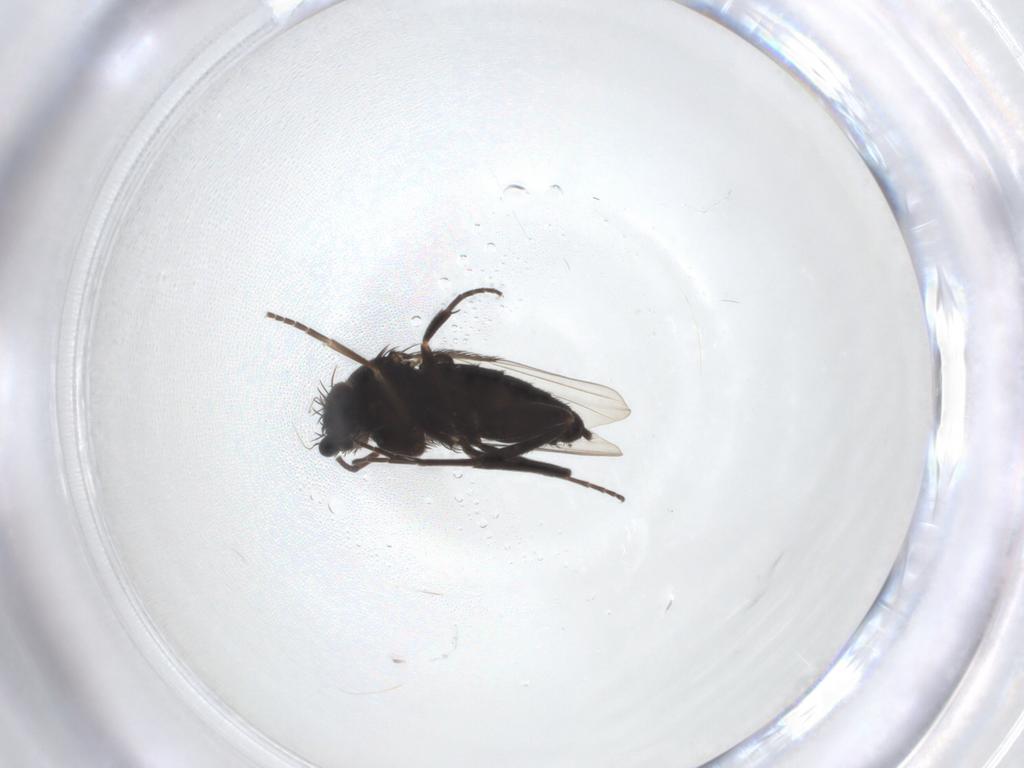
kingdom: Animalia
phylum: Arthropoda
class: Insecta
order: Diptera
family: Phoridae
